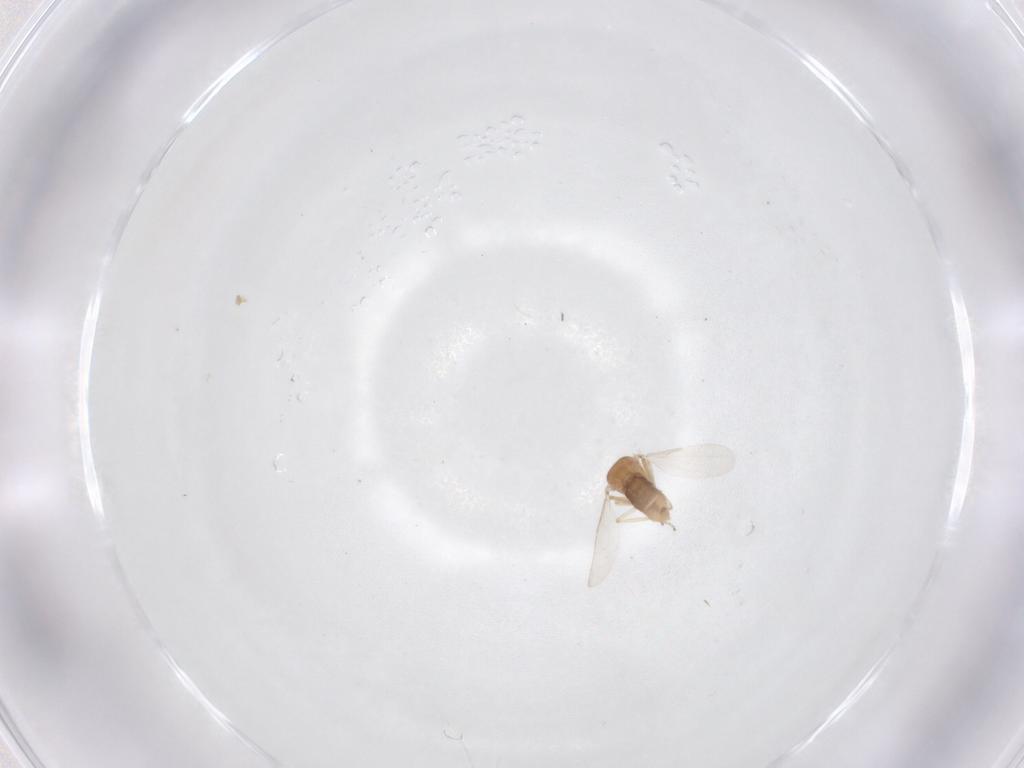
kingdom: Animalia
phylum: Arthropoda
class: Insecta
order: Diptera
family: Ceratopogonidae
